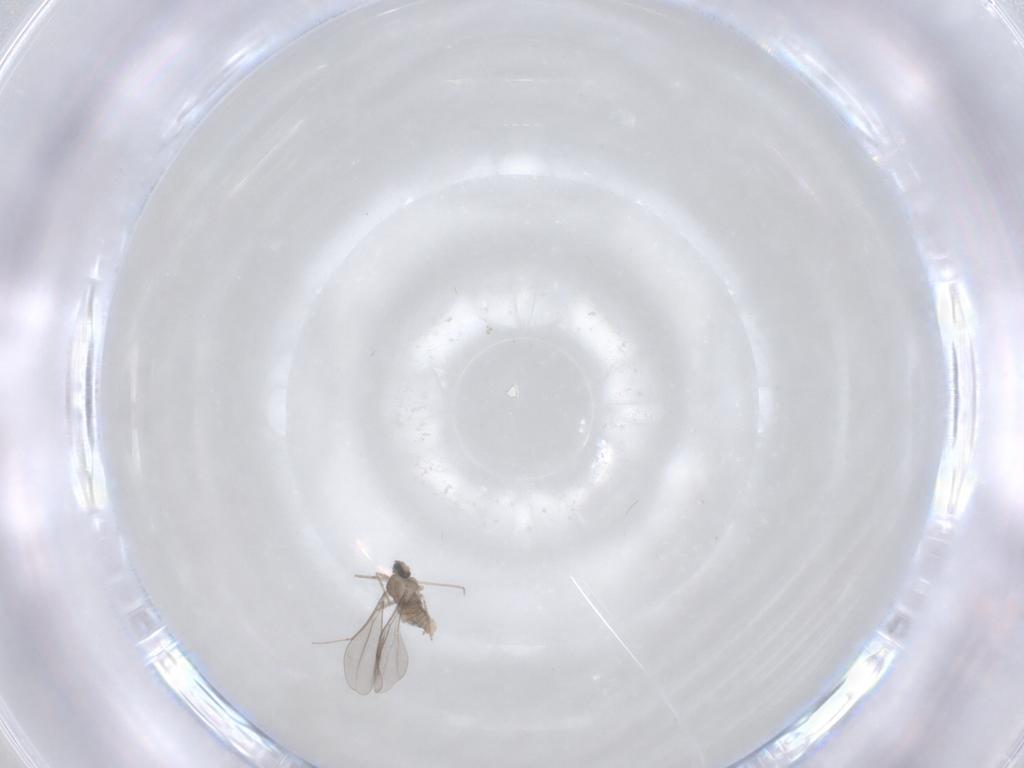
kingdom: Animalia
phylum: Arthropoda
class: Insecta
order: Diptera
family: Cecidomyiidae
